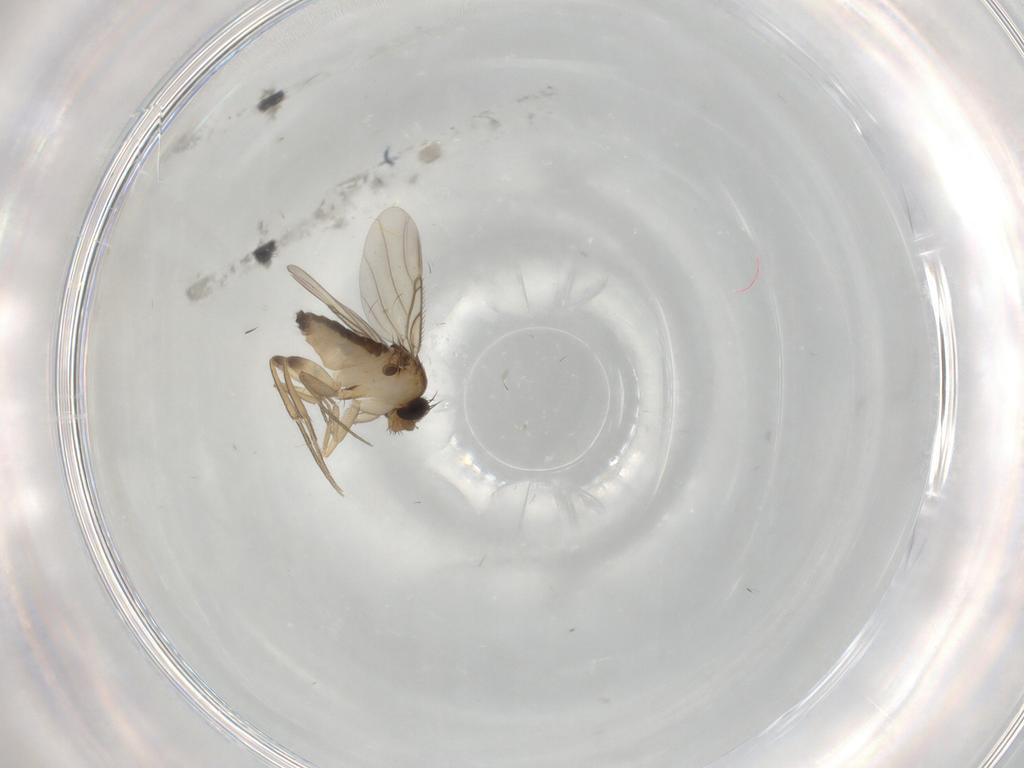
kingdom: Animalia
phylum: Arthropoda
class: Insecta
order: Diptera
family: Phoridae
